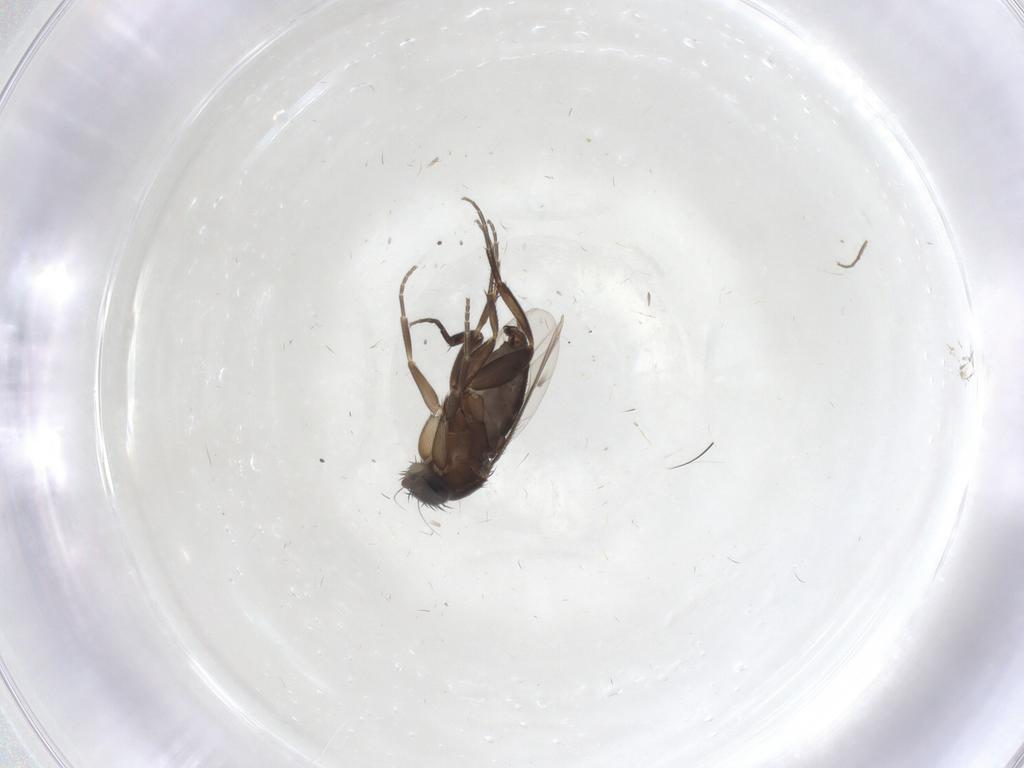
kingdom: Animalia
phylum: Arthropoda
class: Insecta
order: Diptera
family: Phoridae
